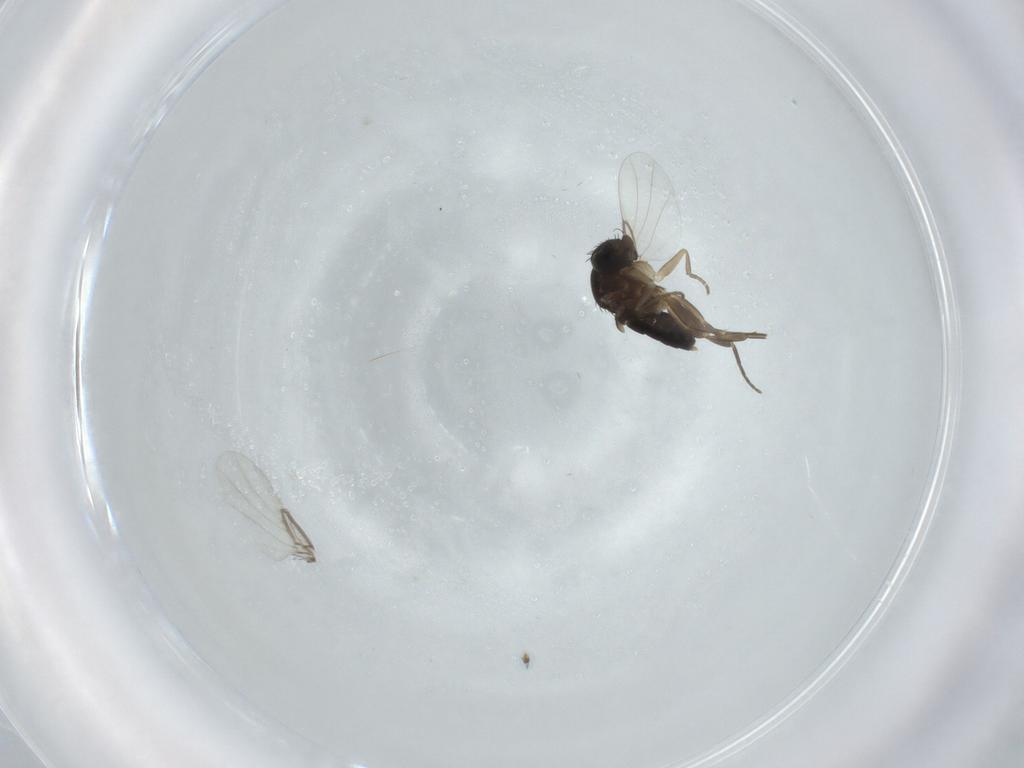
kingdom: Animalia
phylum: Arthropoda
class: Insecta
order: Diptera
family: Phoridae
